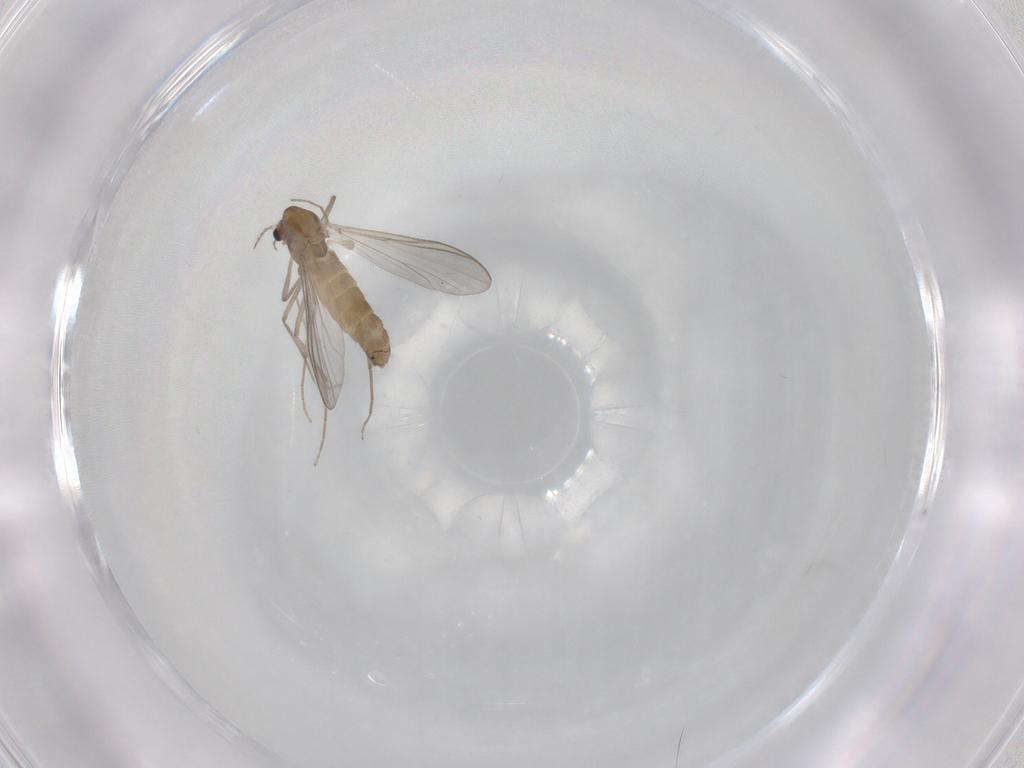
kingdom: Animalia
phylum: Arthropoda
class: Insecta
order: Diptera
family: Chironomidae
